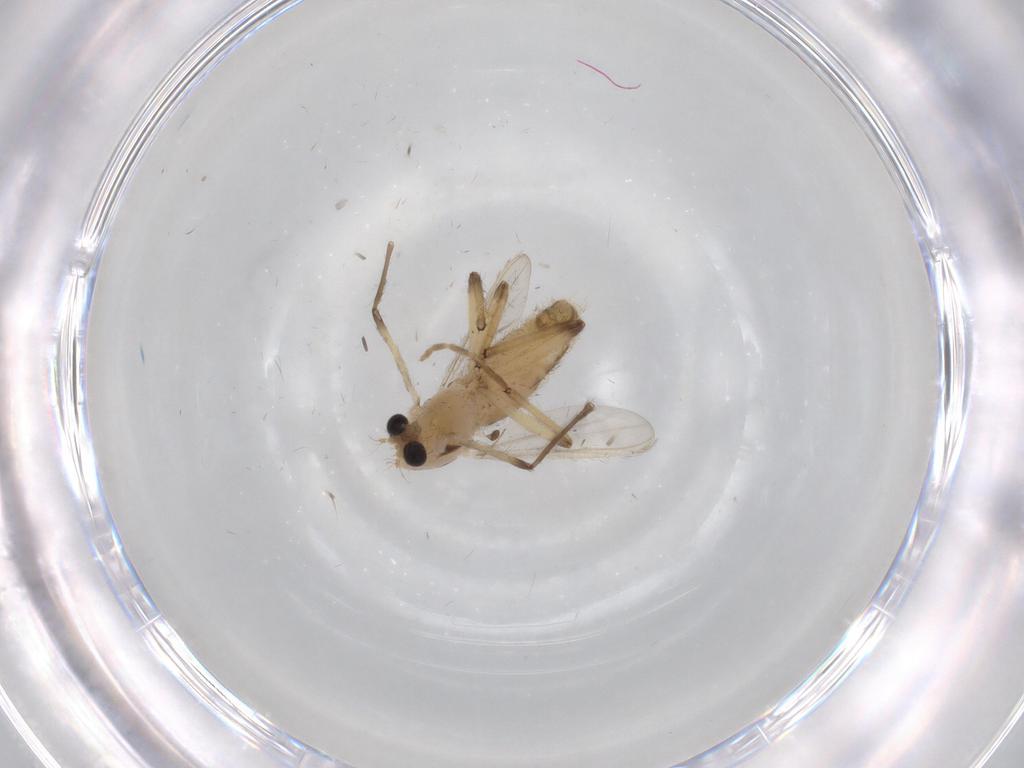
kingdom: Animalia
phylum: Arthropoda
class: Insecta
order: Diptera
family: Chironomidae
